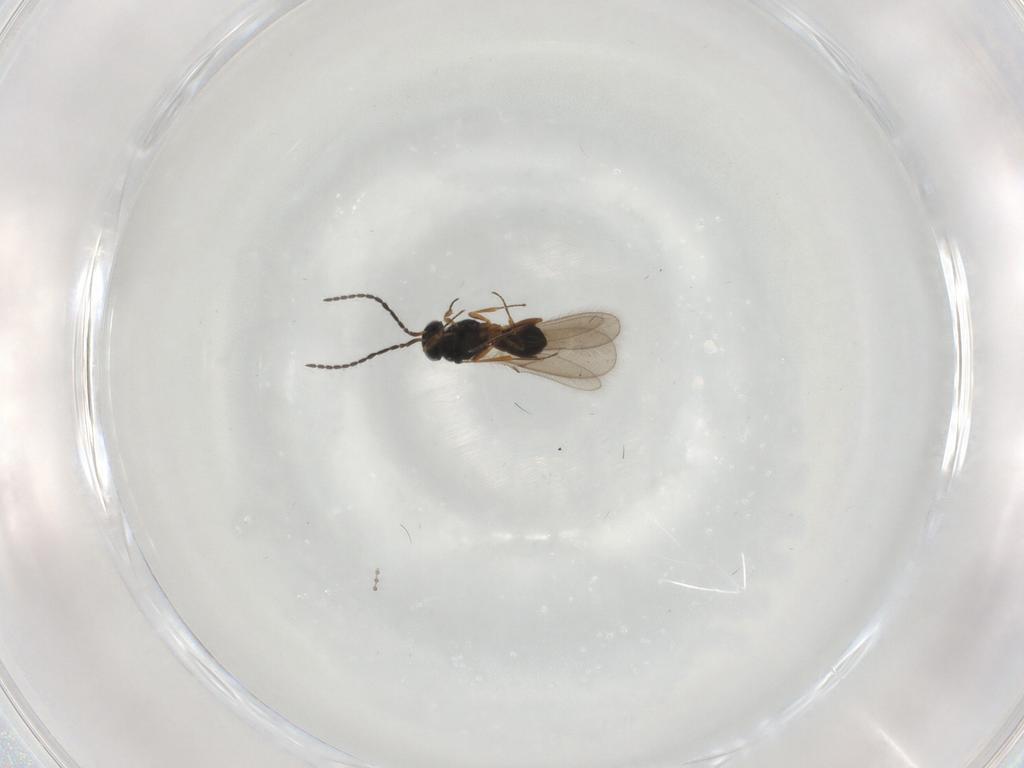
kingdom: Animalia
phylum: Arthropoda
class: Insecta
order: Hymenoptera
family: Scelionidae
